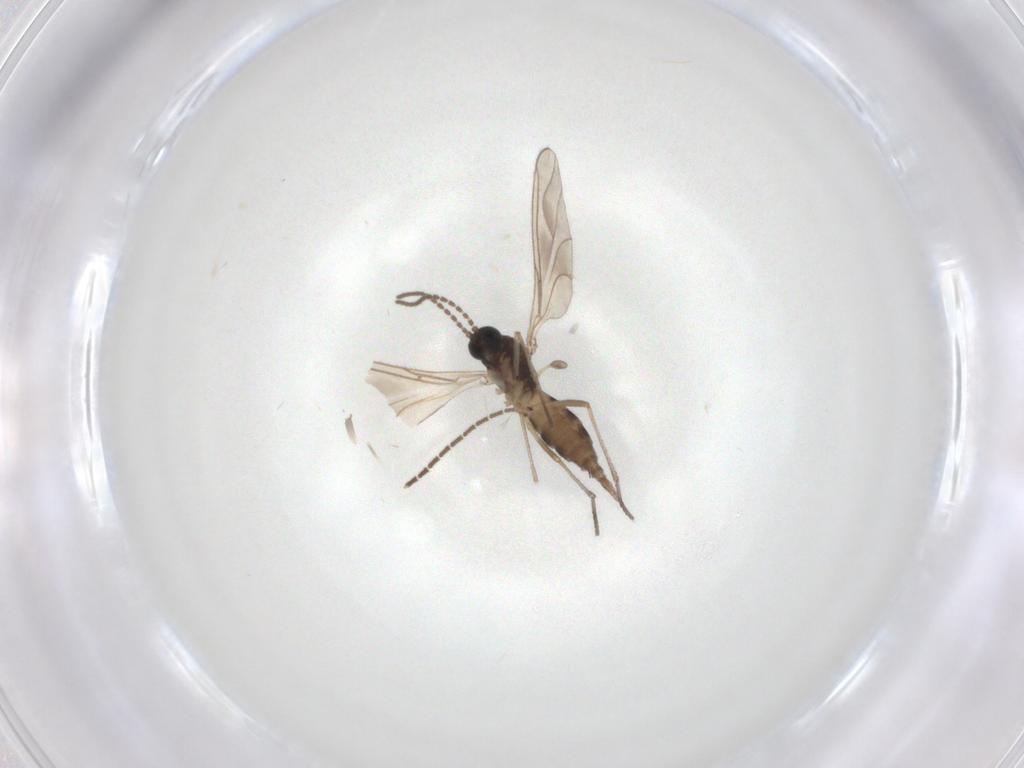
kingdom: Animalia
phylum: Arthropoda
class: Insecta
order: Diptera
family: Sciaridae
